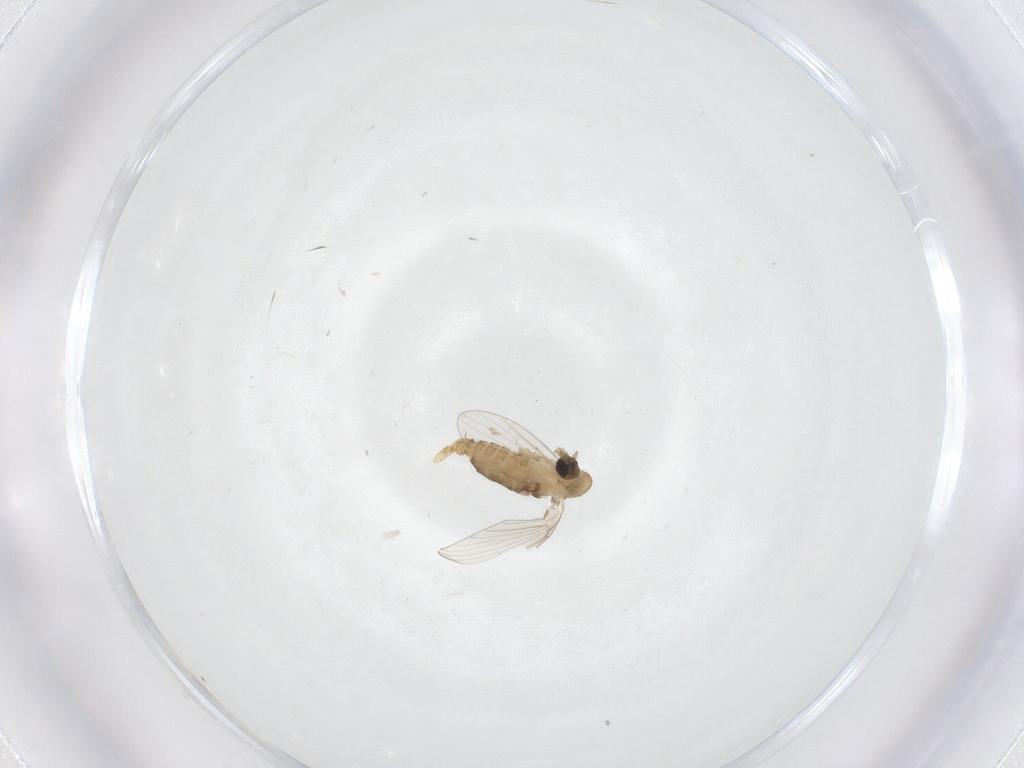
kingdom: Animalia
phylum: Arthropoda
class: Insecta
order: Diptera
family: Psychodidae
